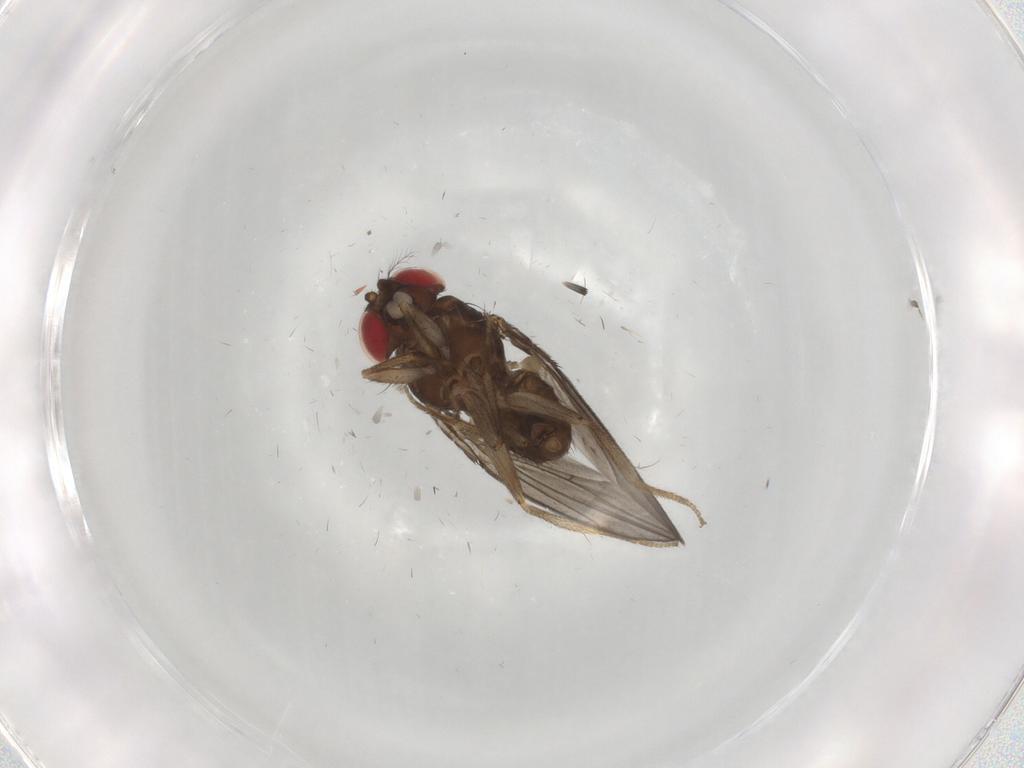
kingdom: Animalia
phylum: Arthropoda
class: Insecta
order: Diptera
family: Drosophilidae
